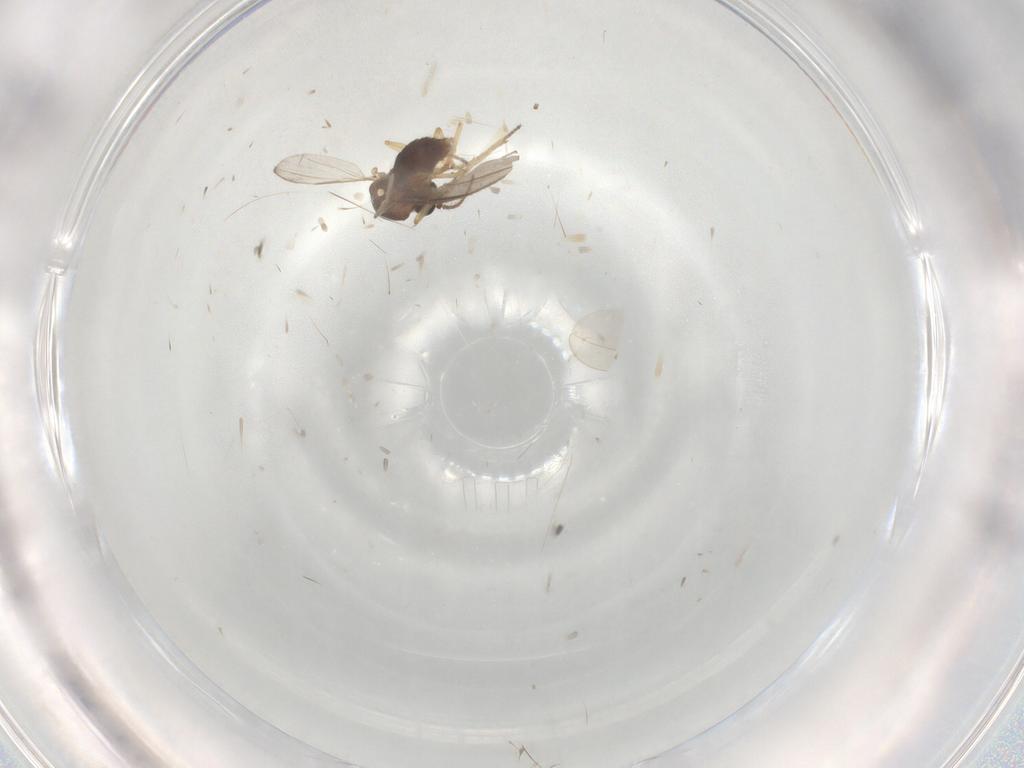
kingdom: Animalia
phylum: Arthropoda
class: Insecta
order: Diptera
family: Ceratopogonidae
